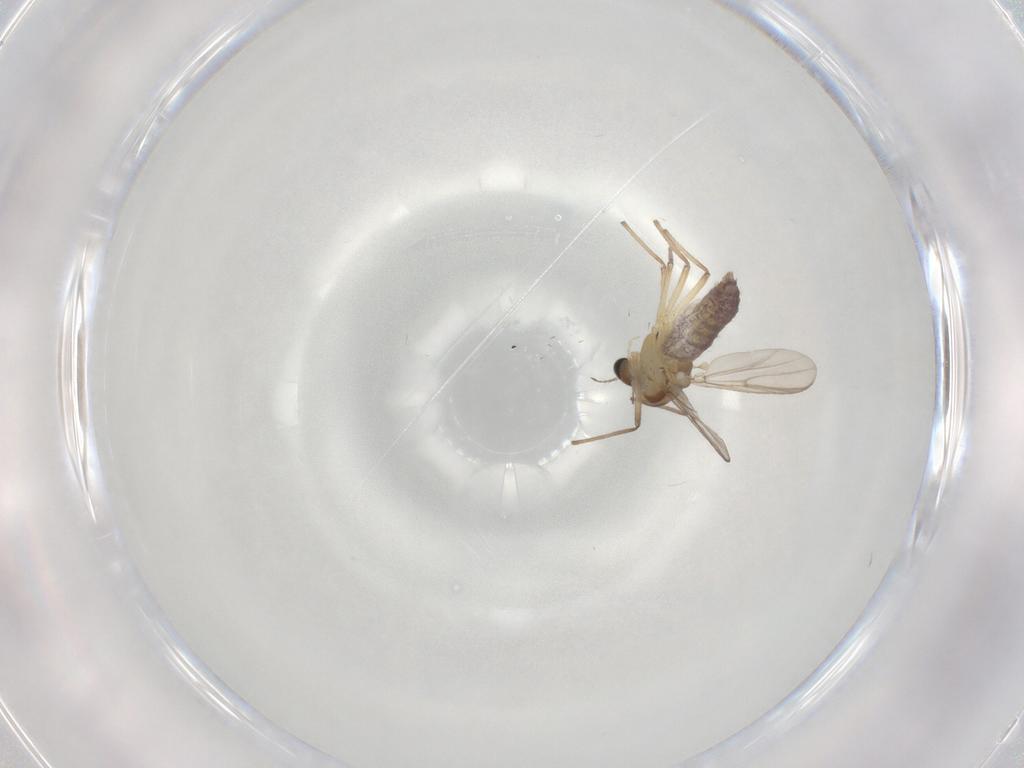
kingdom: Animalia
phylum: Arthropoda
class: Insecta
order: Diptera
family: Chironomidae
